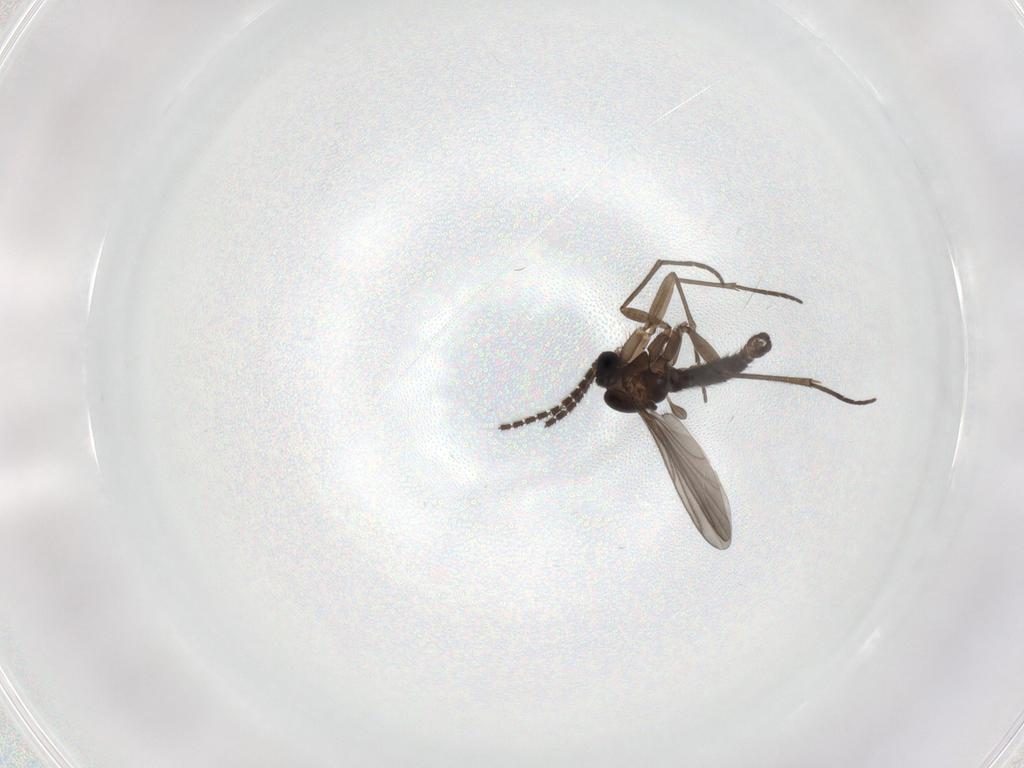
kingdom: Animalia
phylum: Arthropoda
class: Insecta
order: Diptera
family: Sciaridae
